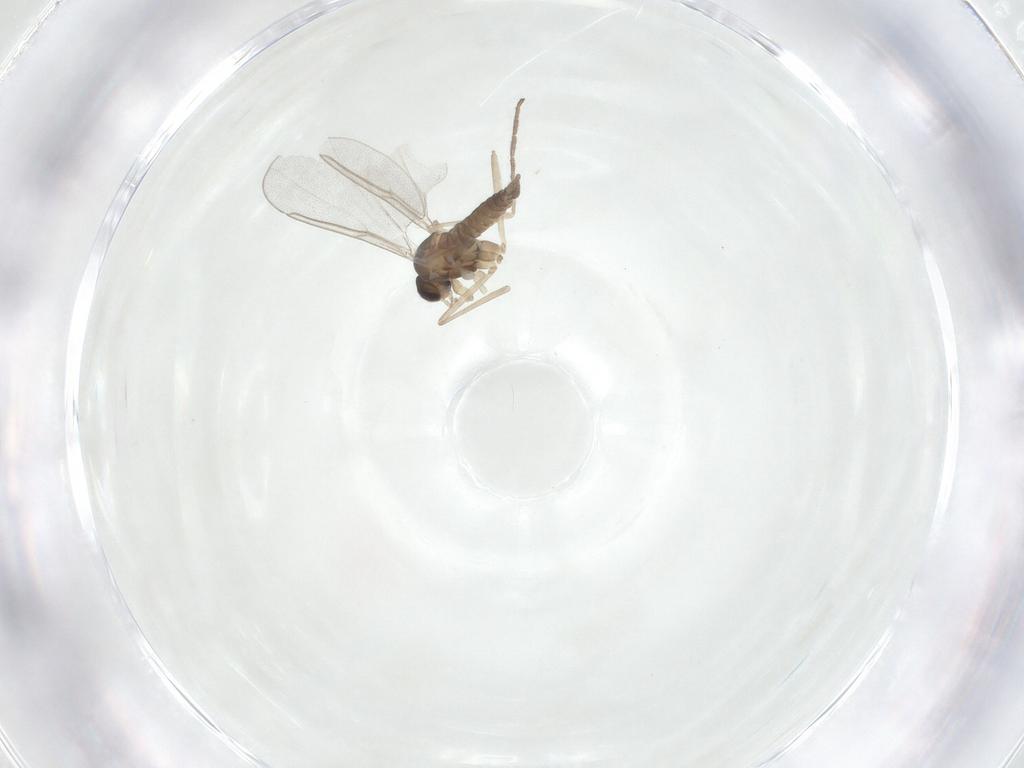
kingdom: Animalia
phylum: Arthropoda
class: Insecta
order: Diptera
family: Cecidomyiidae
